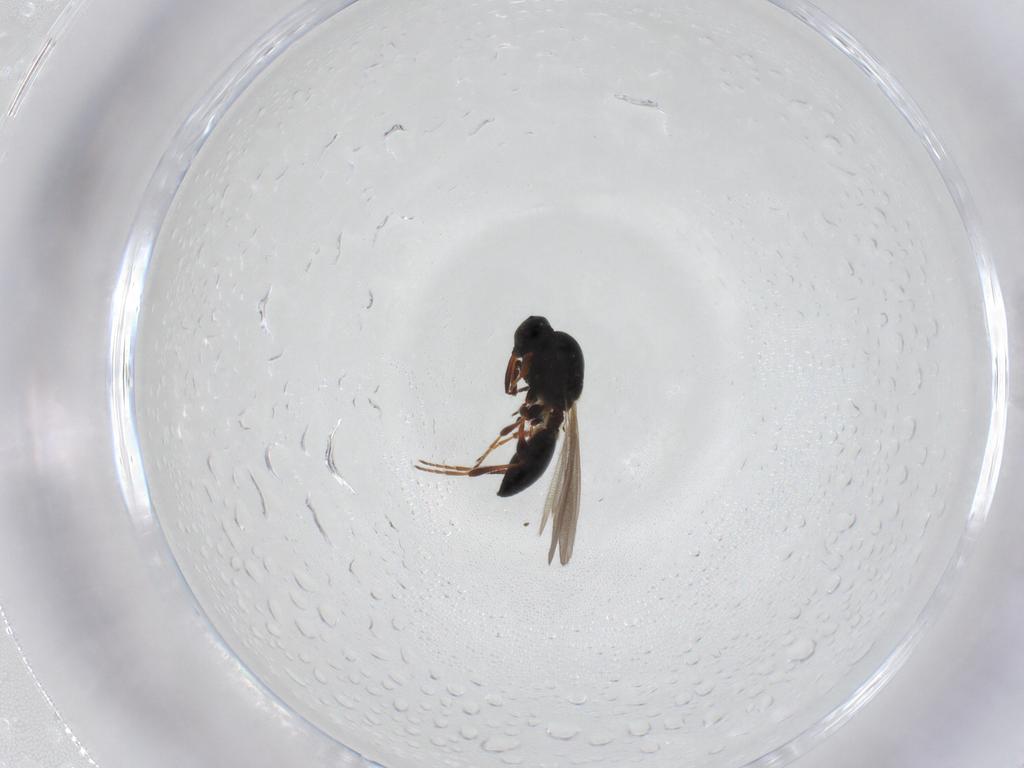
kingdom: Animalia
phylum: Arthropoda
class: Insecta
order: Hymenoptera
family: Platygastridae
